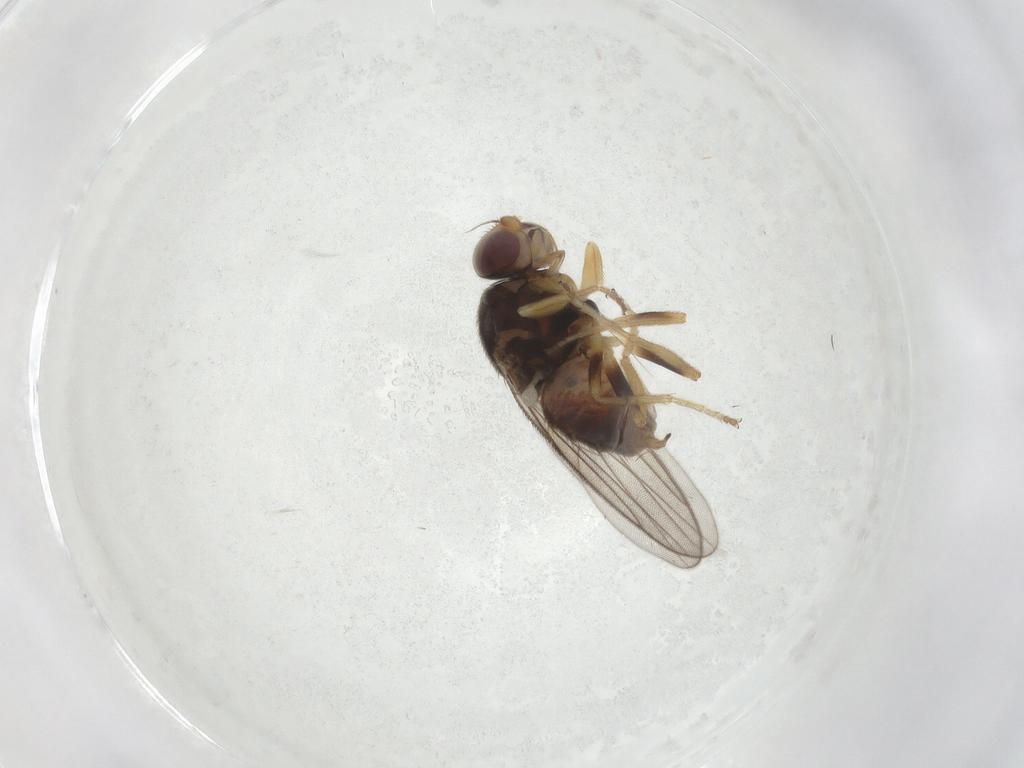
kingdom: Animalia
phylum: Arthropoda
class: Insecta
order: Diptera
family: Chloropidae
